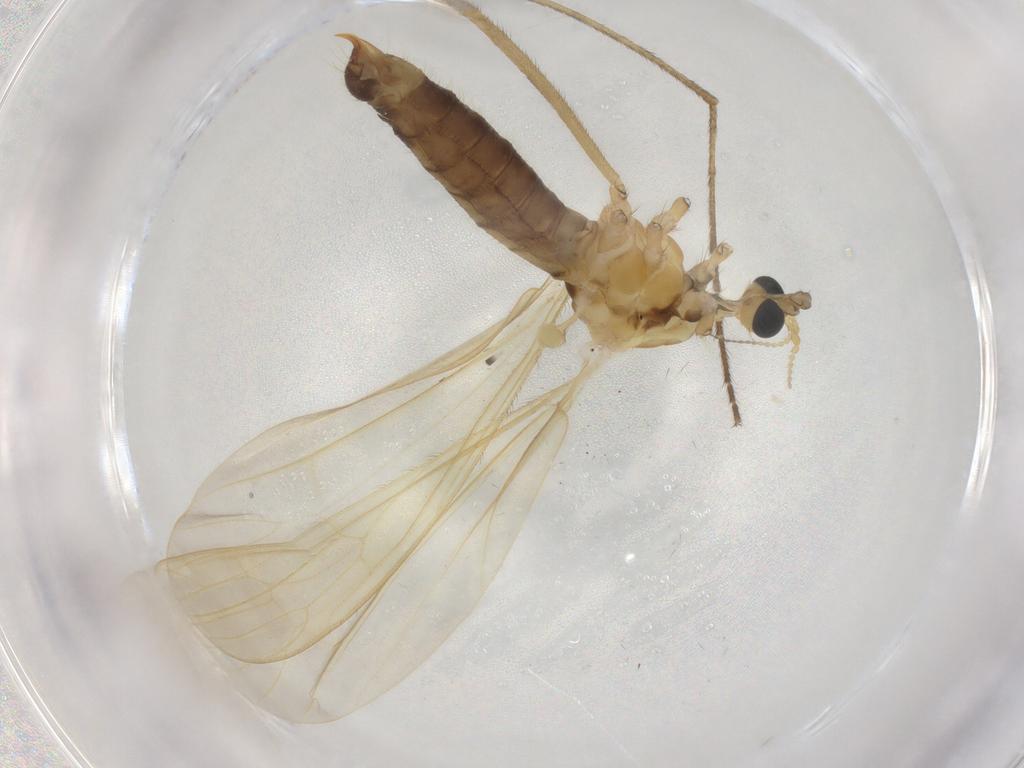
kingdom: Animalia
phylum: Arthropoda
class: Insecta
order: Diptera
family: Limoniidae
